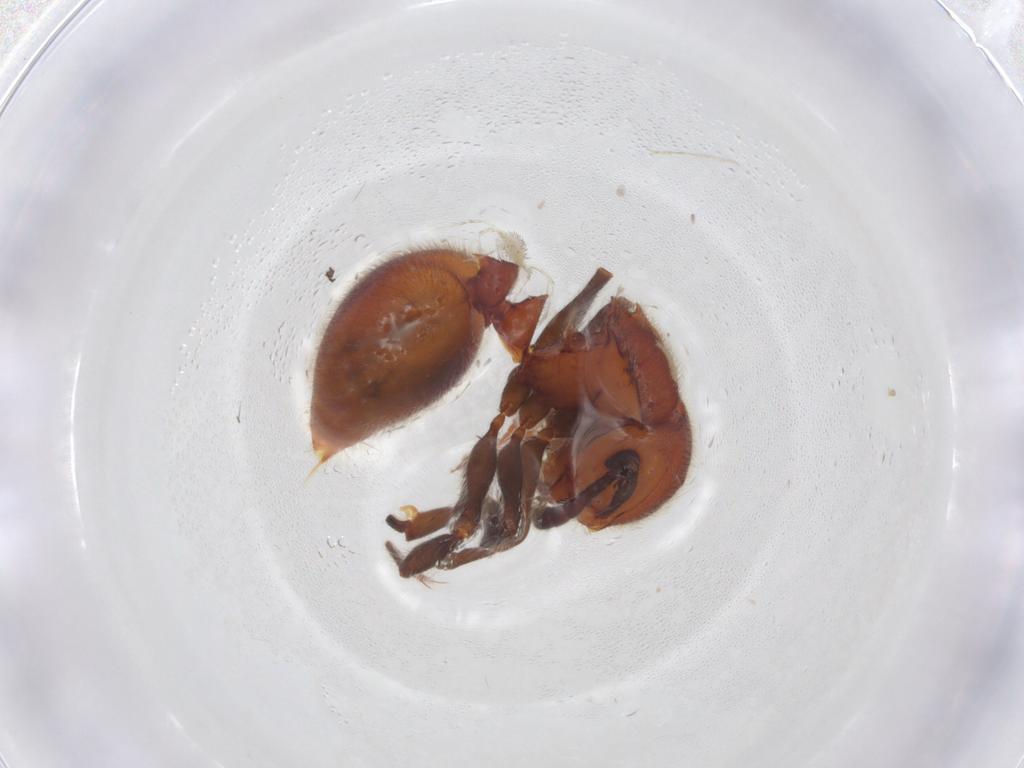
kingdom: Animalia
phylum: Arthropoda
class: Insecta
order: Hymenoptera
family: Formicidae
